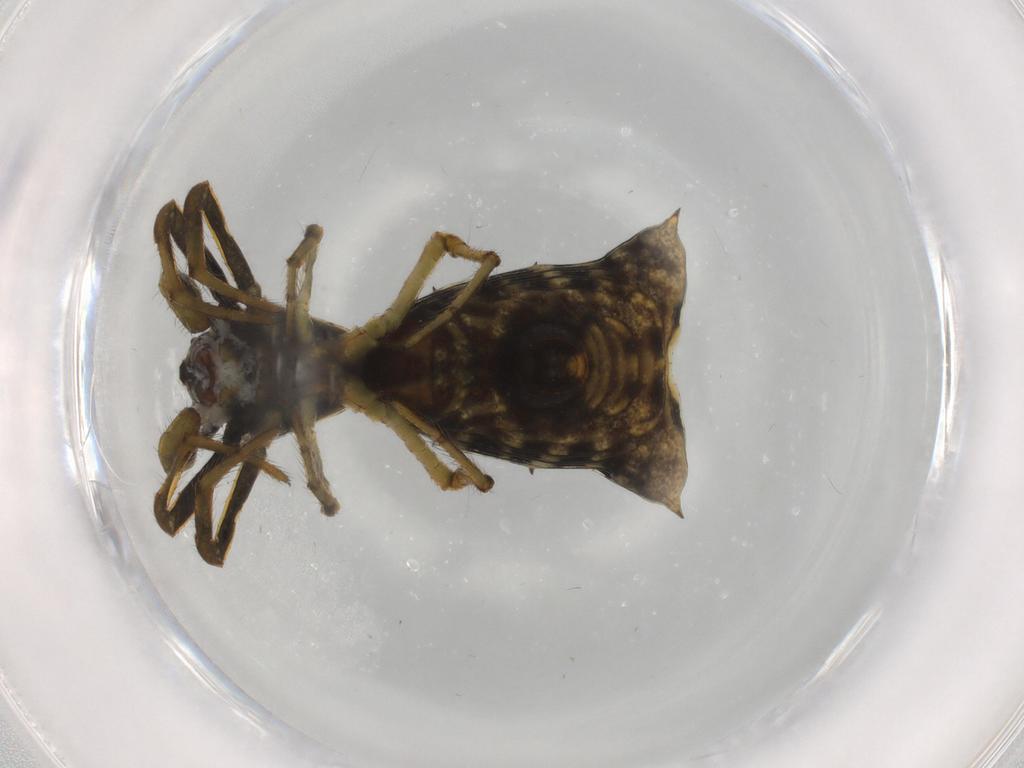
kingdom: Animalia
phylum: Arthropoda
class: Arachnida
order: Araneae
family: Araneidae
